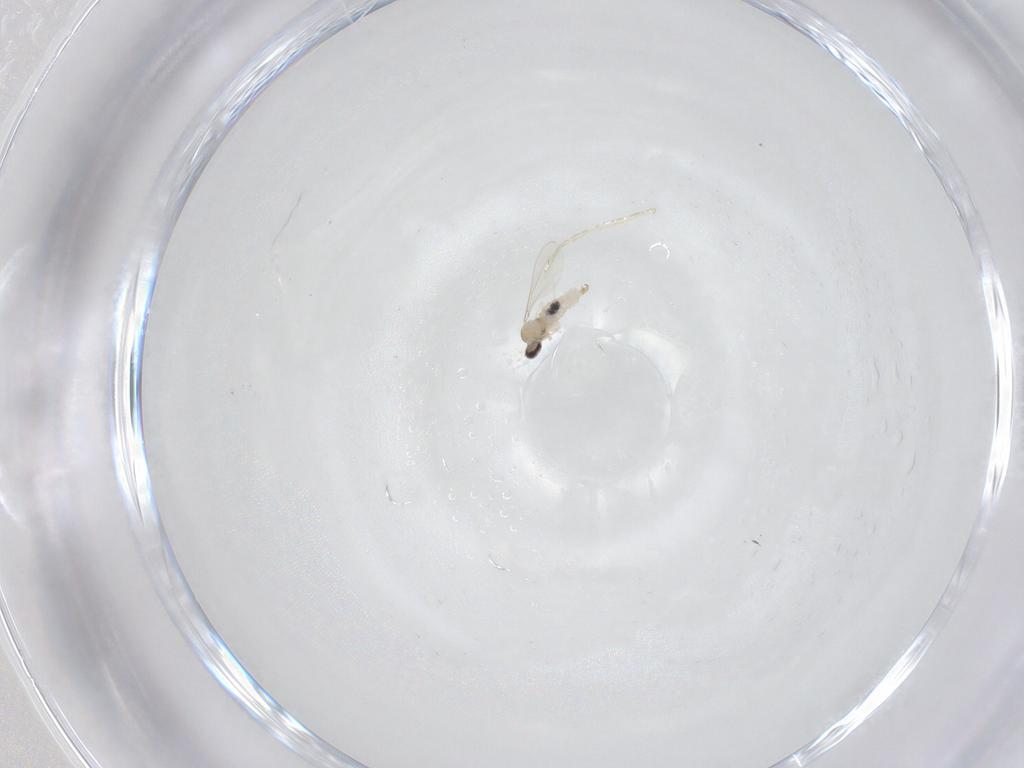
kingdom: Animalia
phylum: Arthropoda
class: Insecta
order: Diptera
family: Cecidomyiidae
